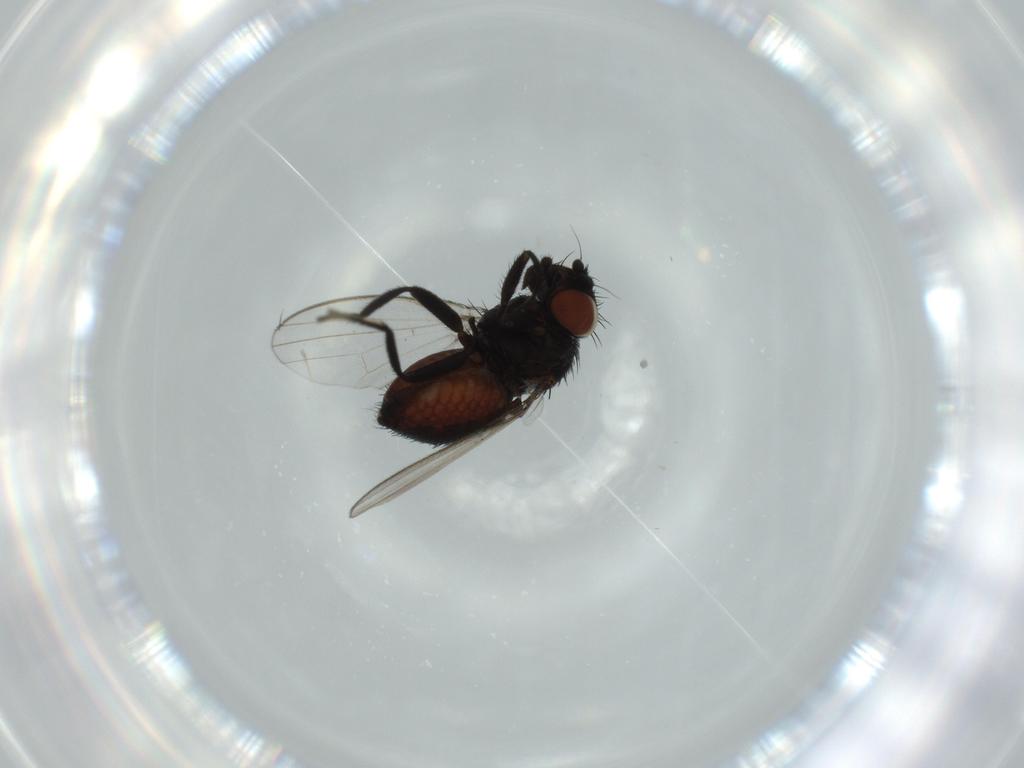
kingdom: Animalia
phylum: Arthropoda
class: Insecta
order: Diptera
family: Milichiidae
